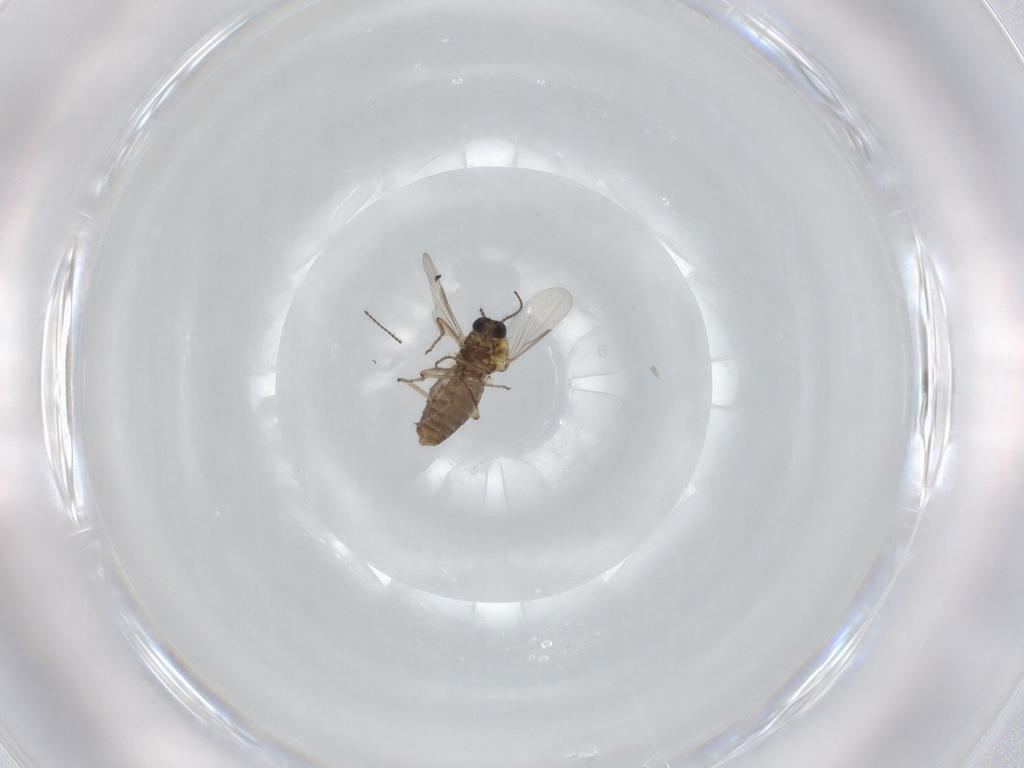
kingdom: Animalia
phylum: Arthropoda
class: Insecta
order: Diptera
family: Ceratopogonidae
